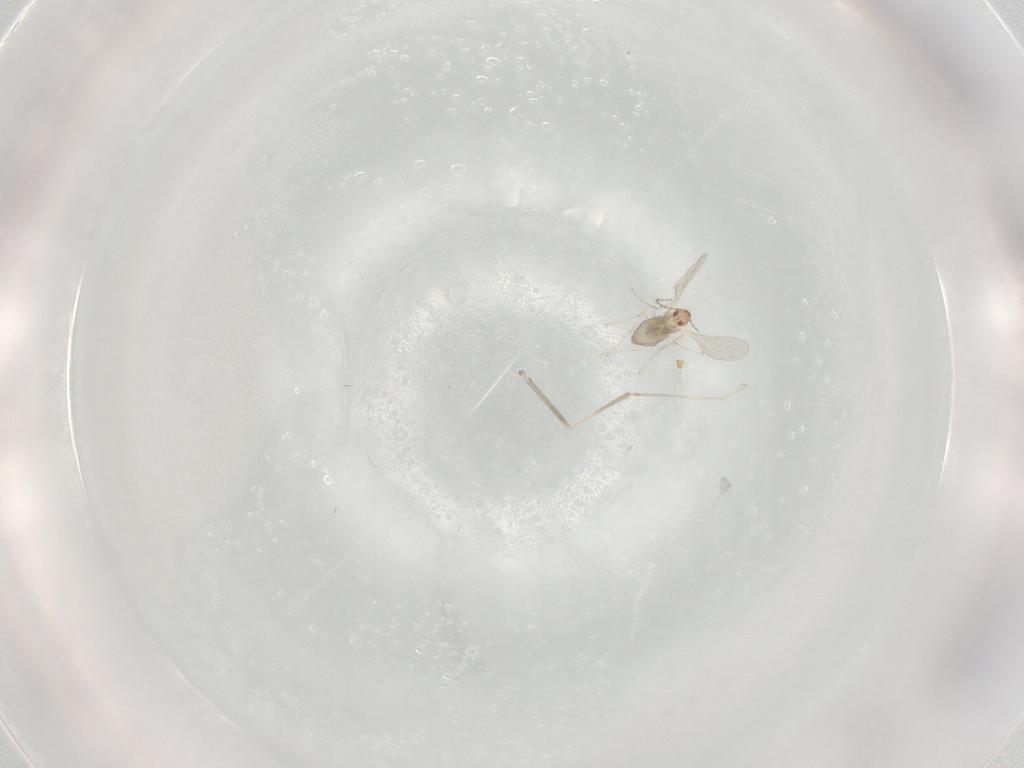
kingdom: Animalia
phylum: Arthropoda
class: Insecta
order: Diptera
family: Cecidomyiidae
